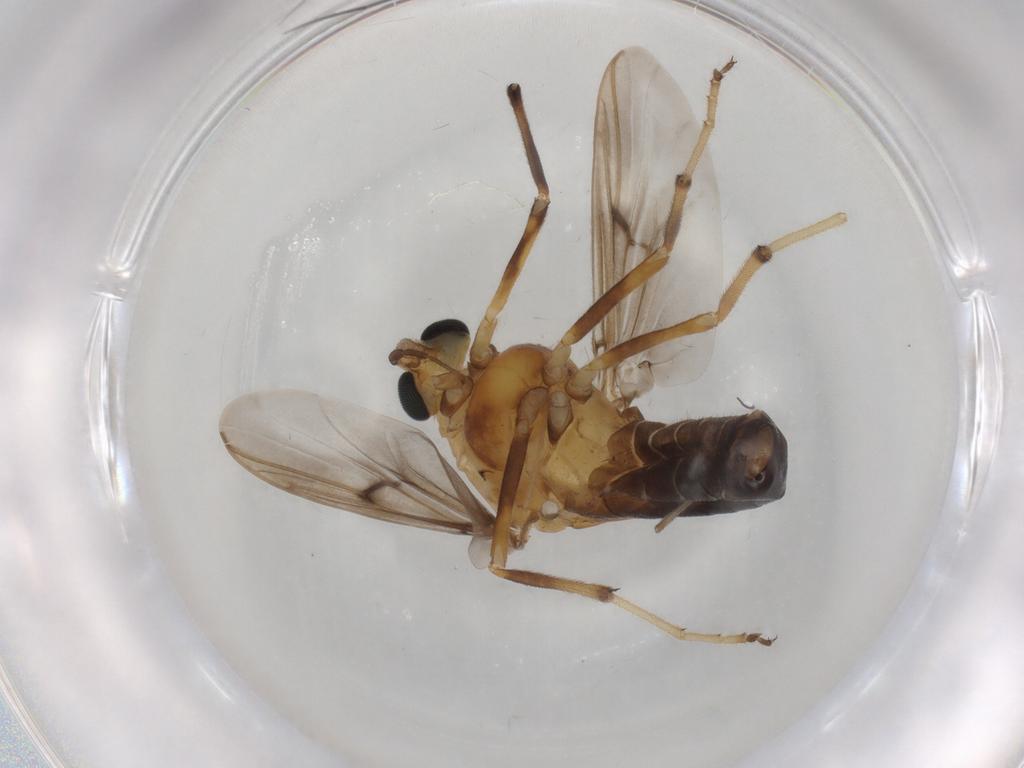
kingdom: Animalia
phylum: Arthropoda
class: Insecta
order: Diptera
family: Chironomidae
